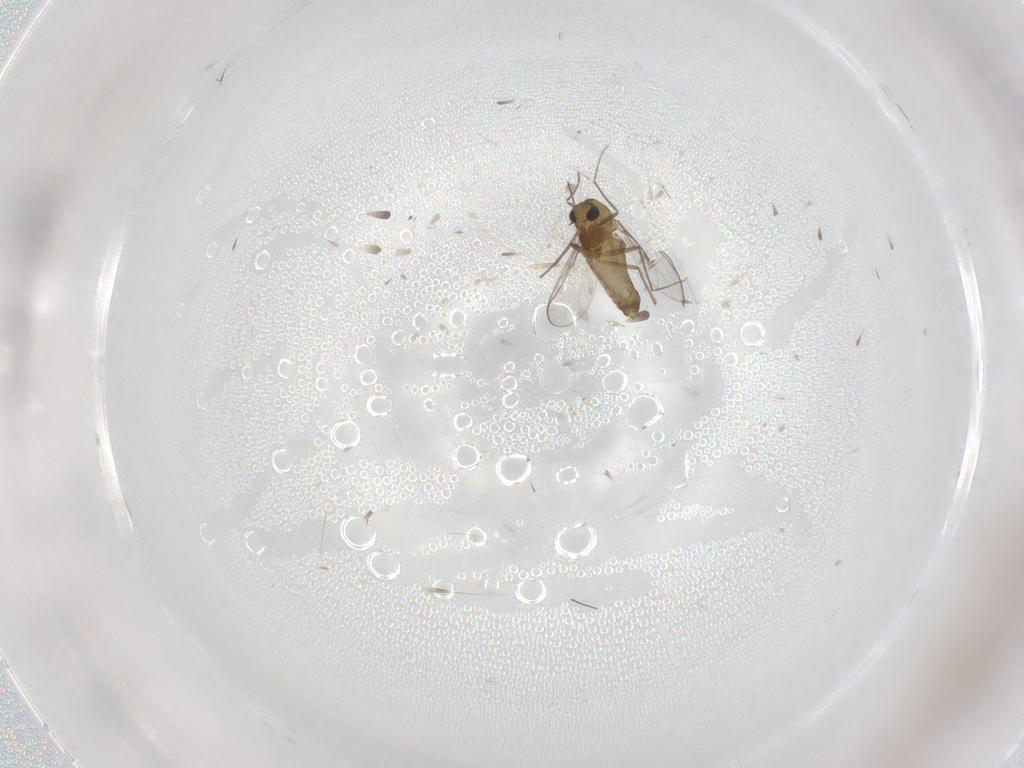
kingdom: Animalia
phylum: Arthropoda
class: Insecta
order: Diptera
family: Chironomidae
